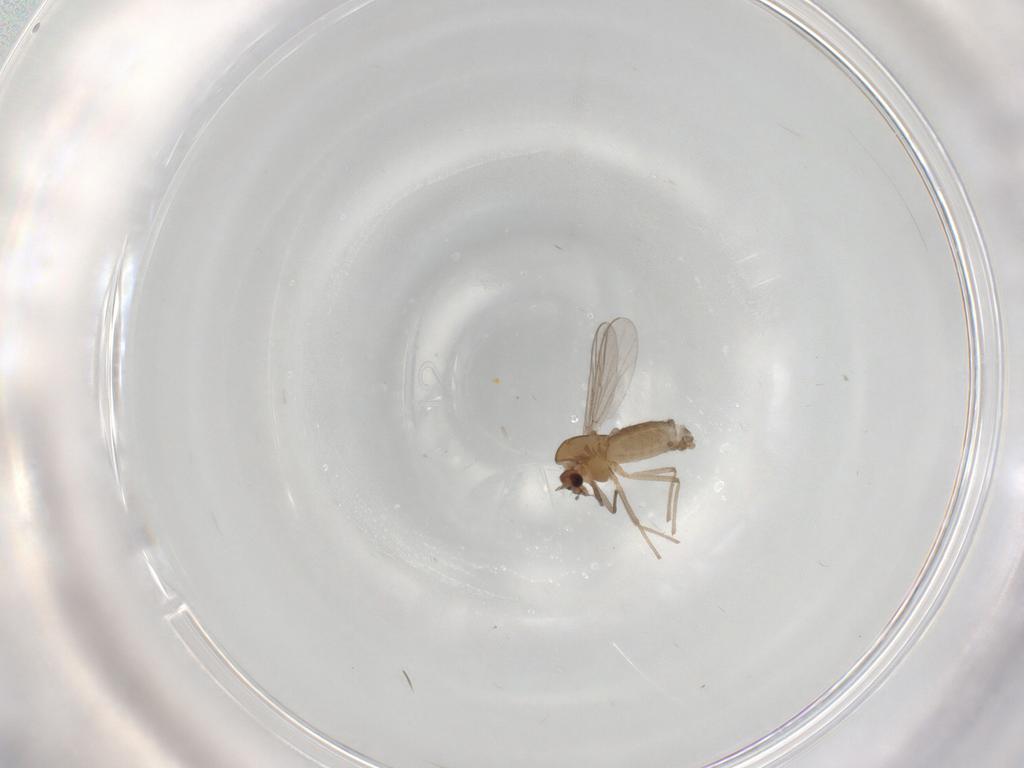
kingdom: Animalia
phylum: Arthropoda
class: Insecta
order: Diptera
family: Chironomidae
